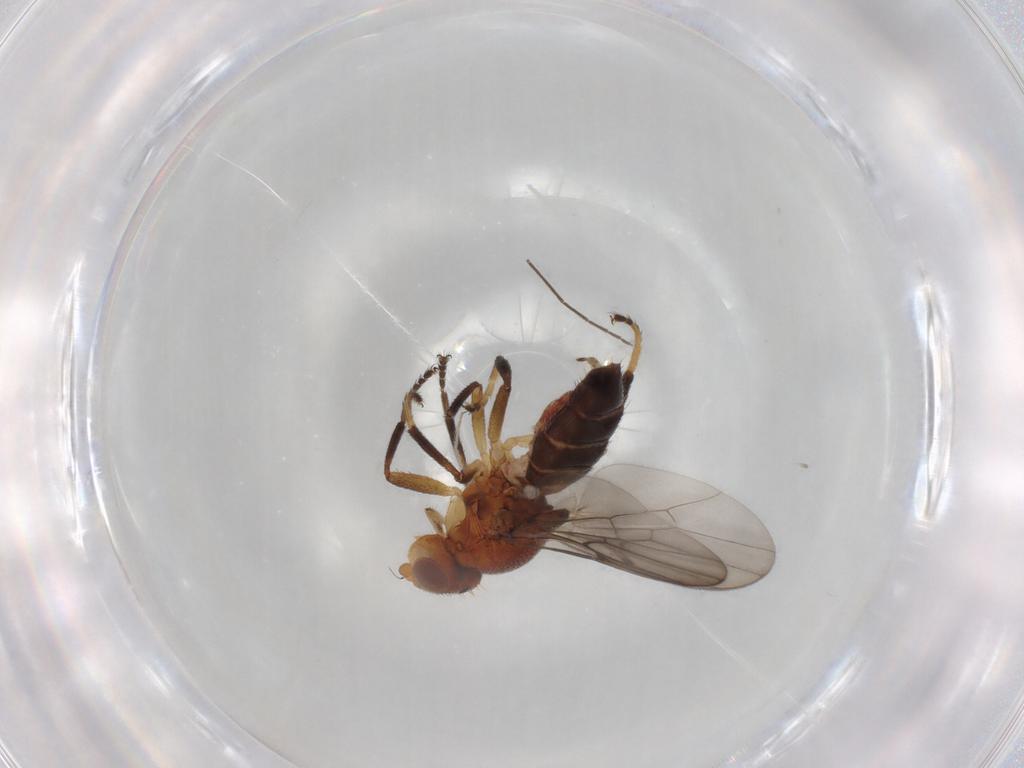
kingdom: Animalia
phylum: Arthropoda
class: Insecta
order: Diptera
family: Chloropidae
